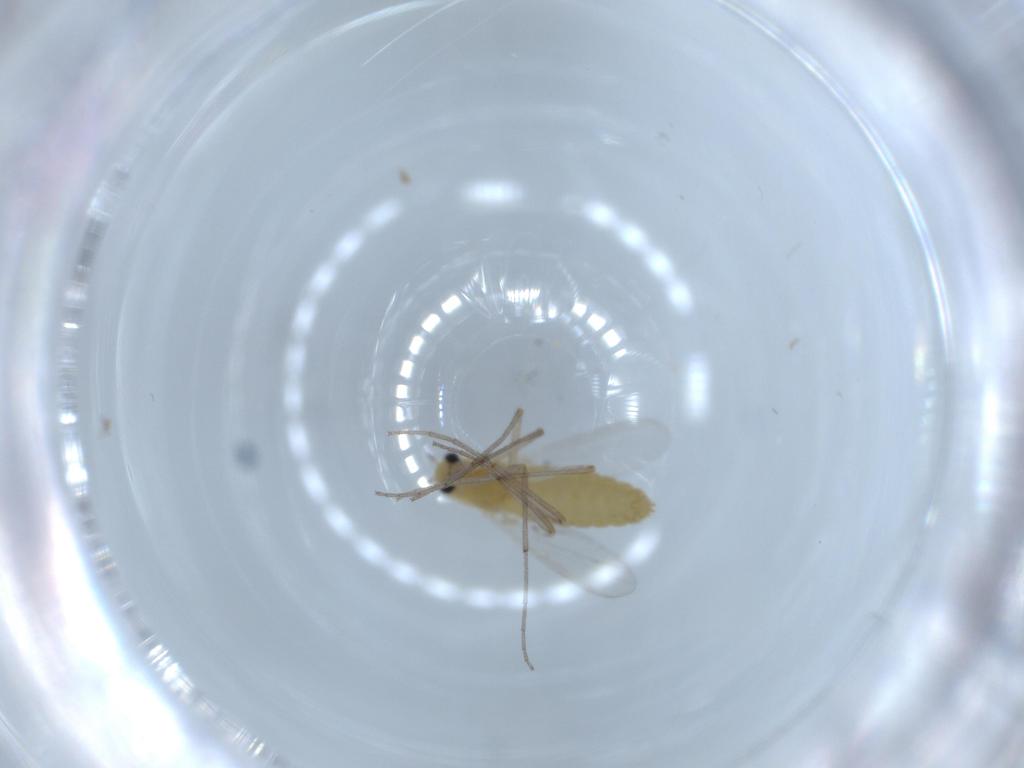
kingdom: Animalia
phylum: Arthropoda
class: Insecta
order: Diptera
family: Chironomidae
